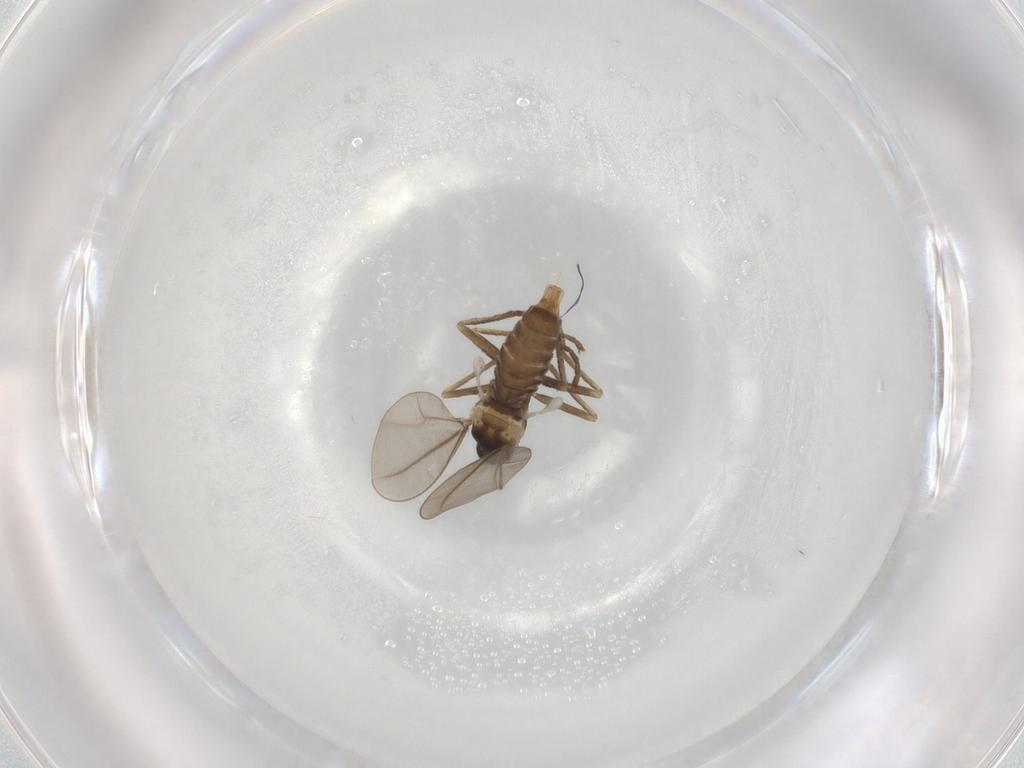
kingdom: Animalia
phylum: Arthropoda
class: Insecta
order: Diptera
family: Cecidomyiidae
